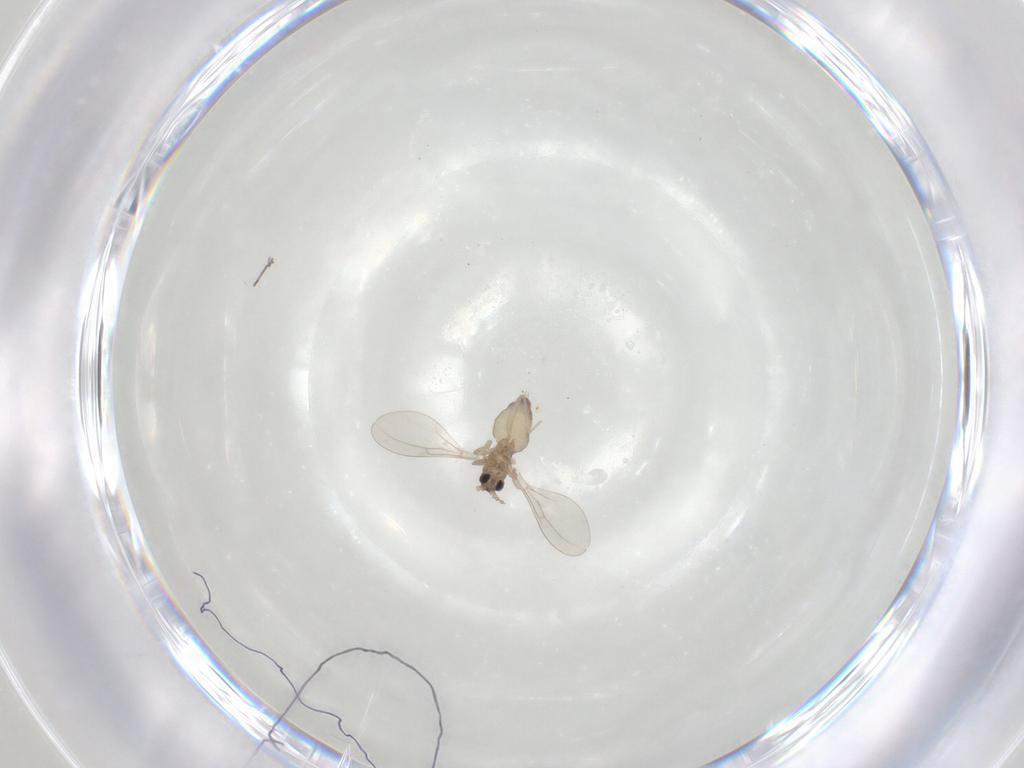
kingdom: Animalia
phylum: Arthropoda
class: Insecta
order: Diptera
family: Cecidomyiidae
